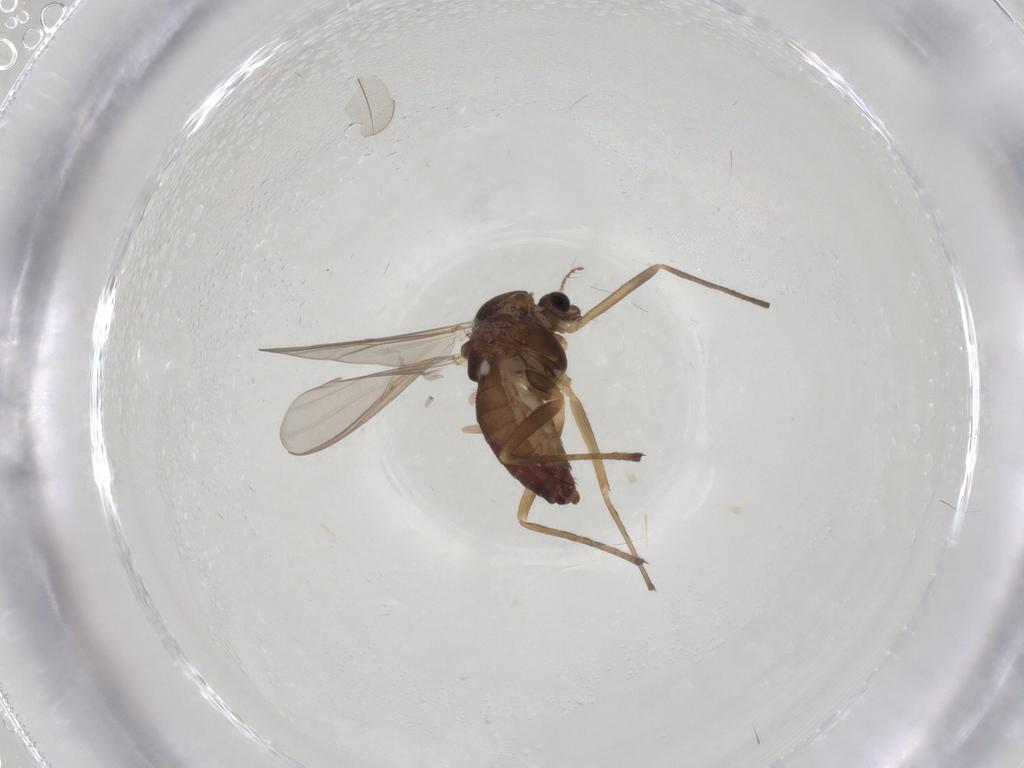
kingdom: Animalia
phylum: Arthropoda
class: Insecta
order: Diptera
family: Chironomidae
